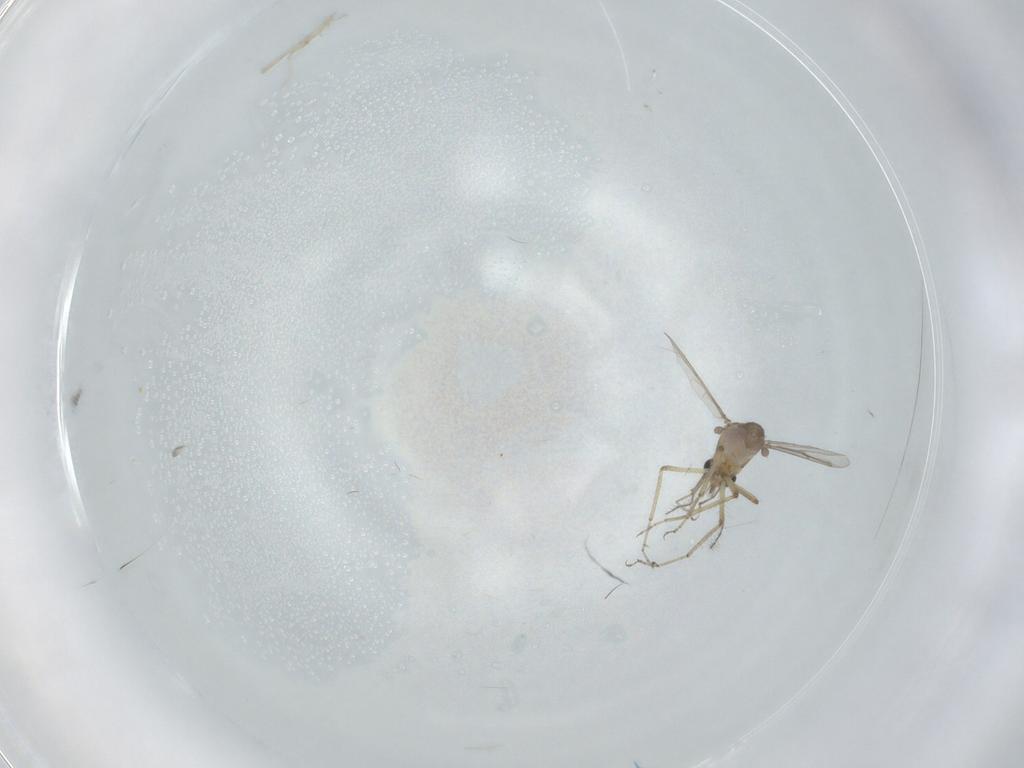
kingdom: Animalia
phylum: Arthropoda
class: Insecta
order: Diptera
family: Ceratopogonidae
